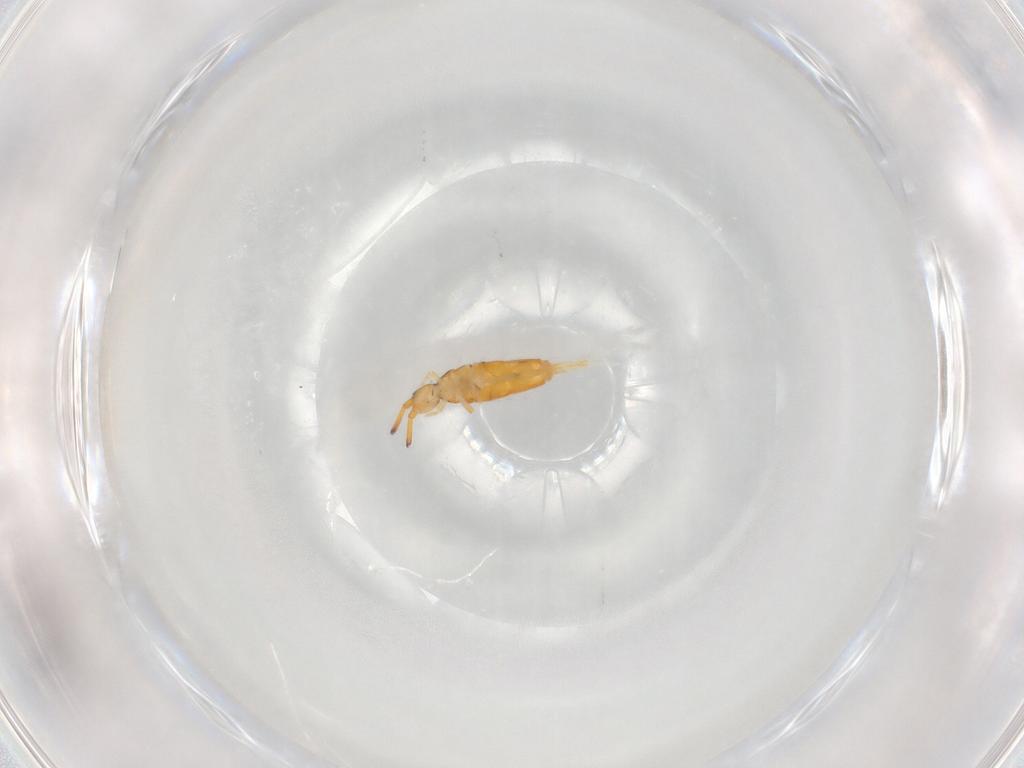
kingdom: Animalia
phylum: Arthropoda
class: Collembola
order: Entomobryomorpha
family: Entomobryidae
